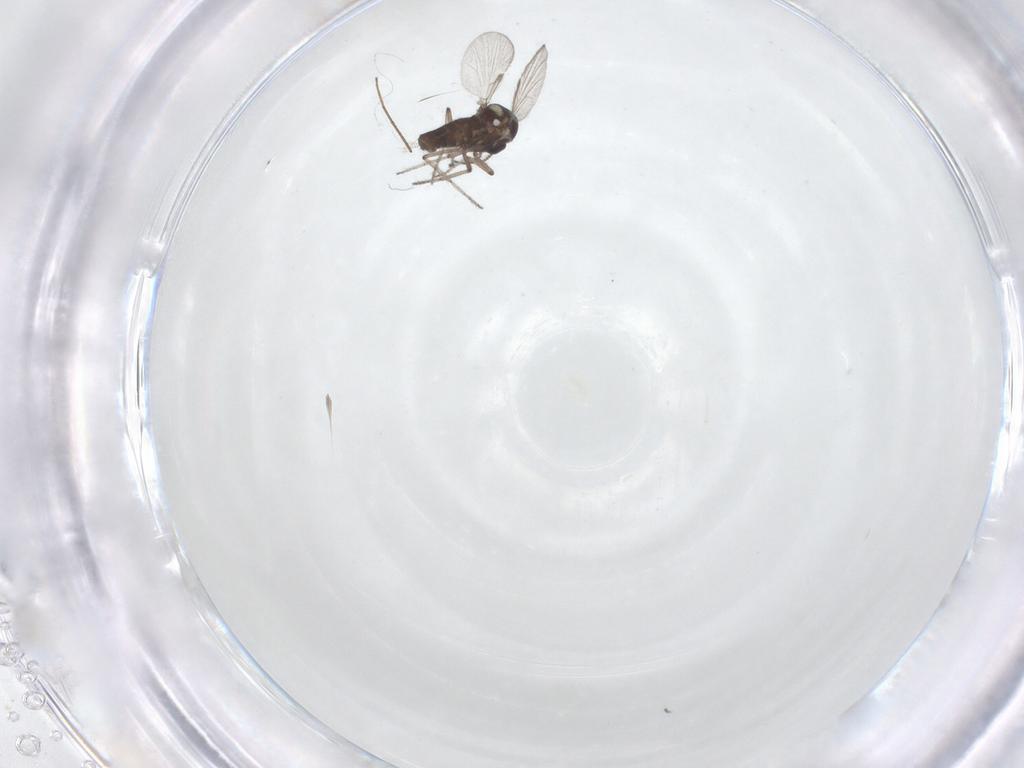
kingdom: Animalia
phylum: Arthropoda
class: Insecta
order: Diptera
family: Ceratopogonidae
